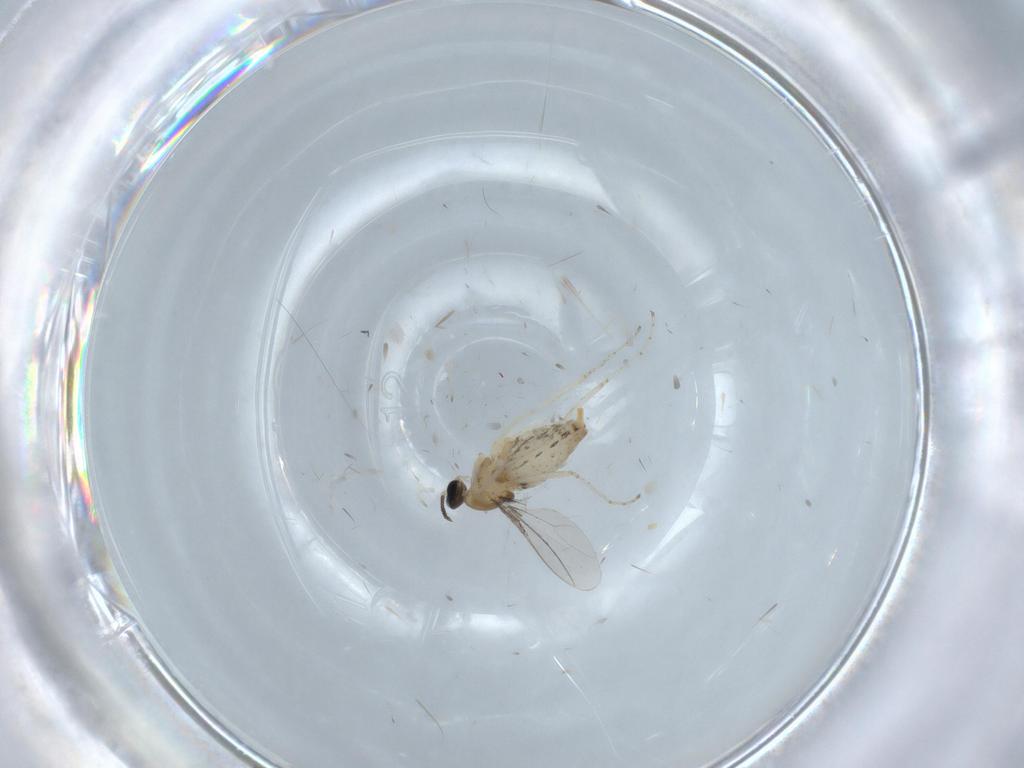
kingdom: Animalia
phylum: Arthropoda
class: Insecta
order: Diptera
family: Cecidomyiidae
